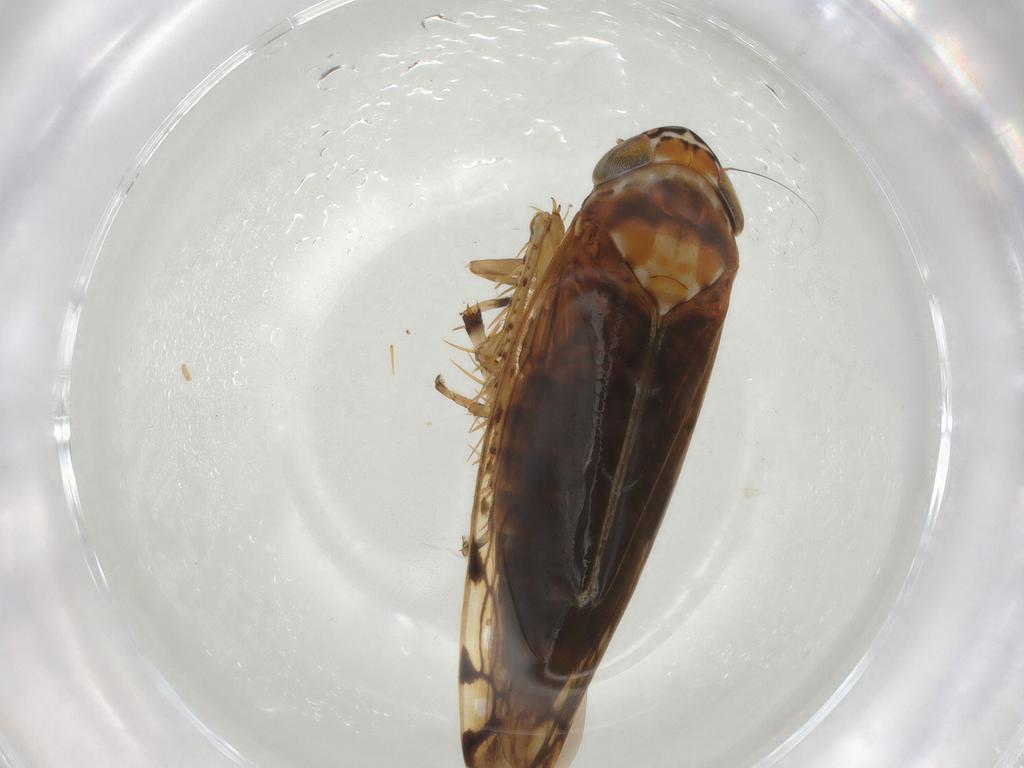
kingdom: Animalia
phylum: Arthropoda
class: Insecta
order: Hemiptera
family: Cicadellidae
